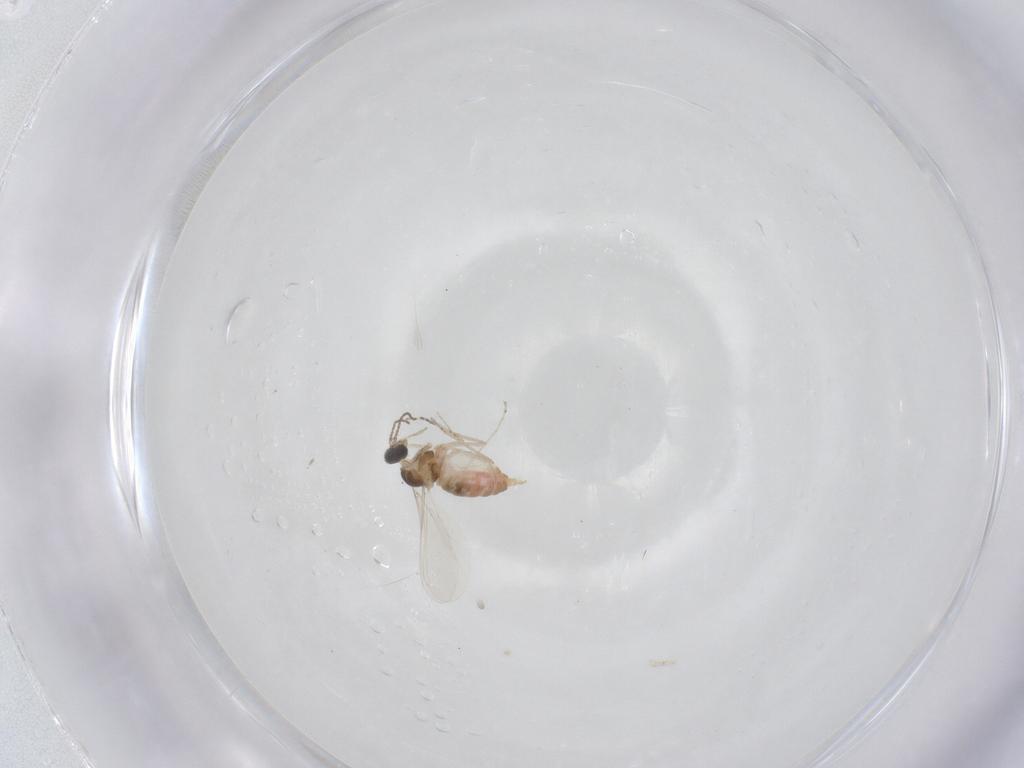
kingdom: Animalia
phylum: Arthropoda
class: Insecta
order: Diptera
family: Cecidomyiidae
